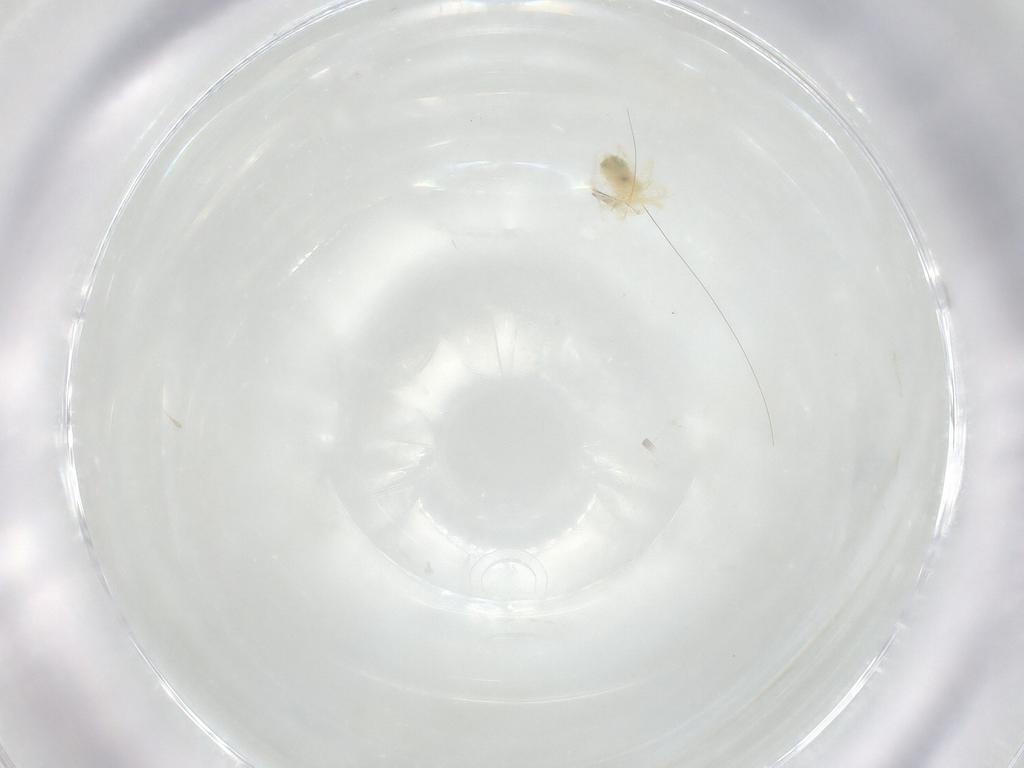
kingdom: Animalia
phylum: Arthropoda
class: Arachnida
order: Trombidiformes
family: Anystidae
